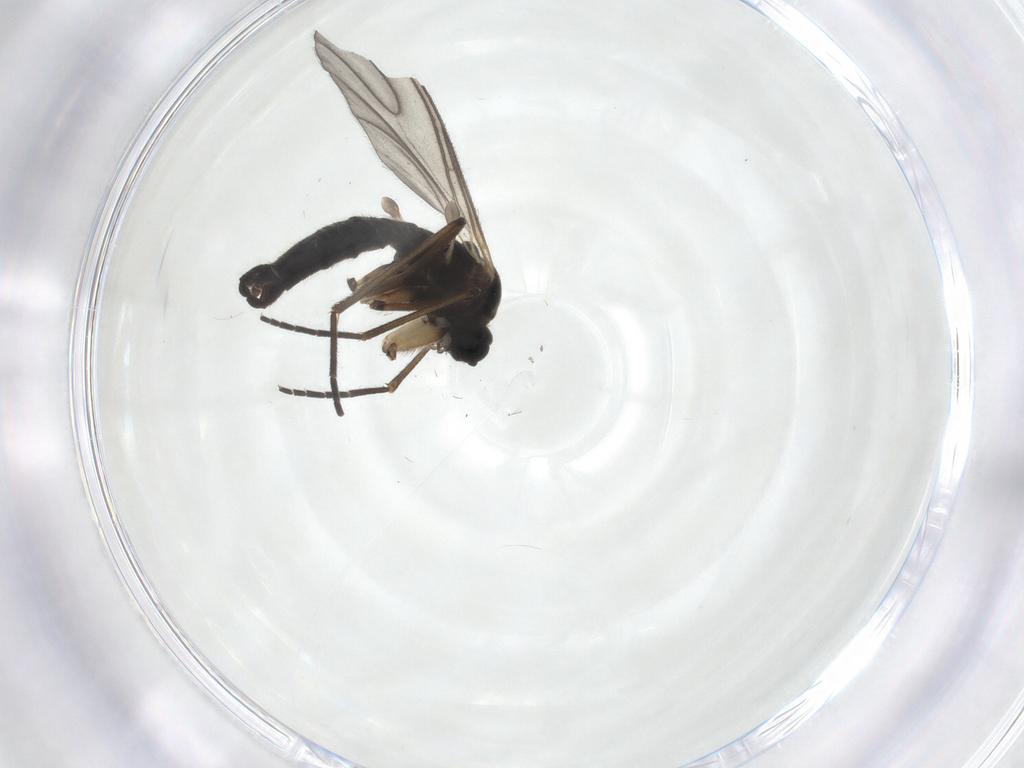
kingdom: Animalia
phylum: Arthropoda
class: Insecta
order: Diptera
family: Sciaridae
